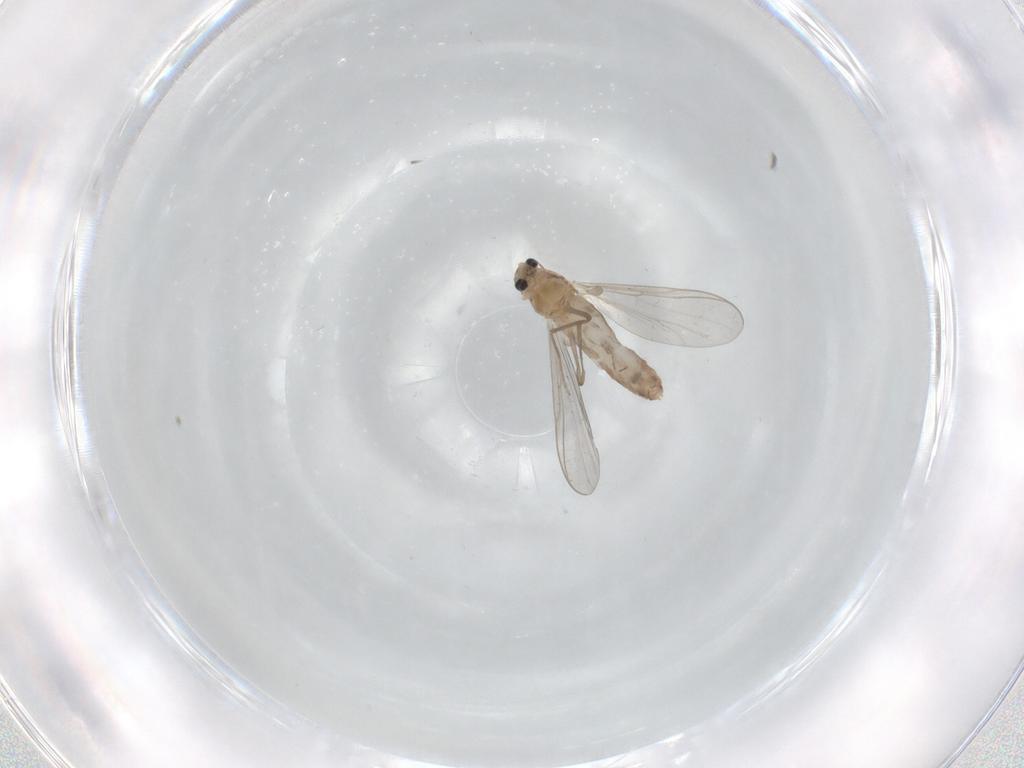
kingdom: Animalia
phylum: Arthropoda
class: Insecta
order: Diptera
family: Chironomidae
